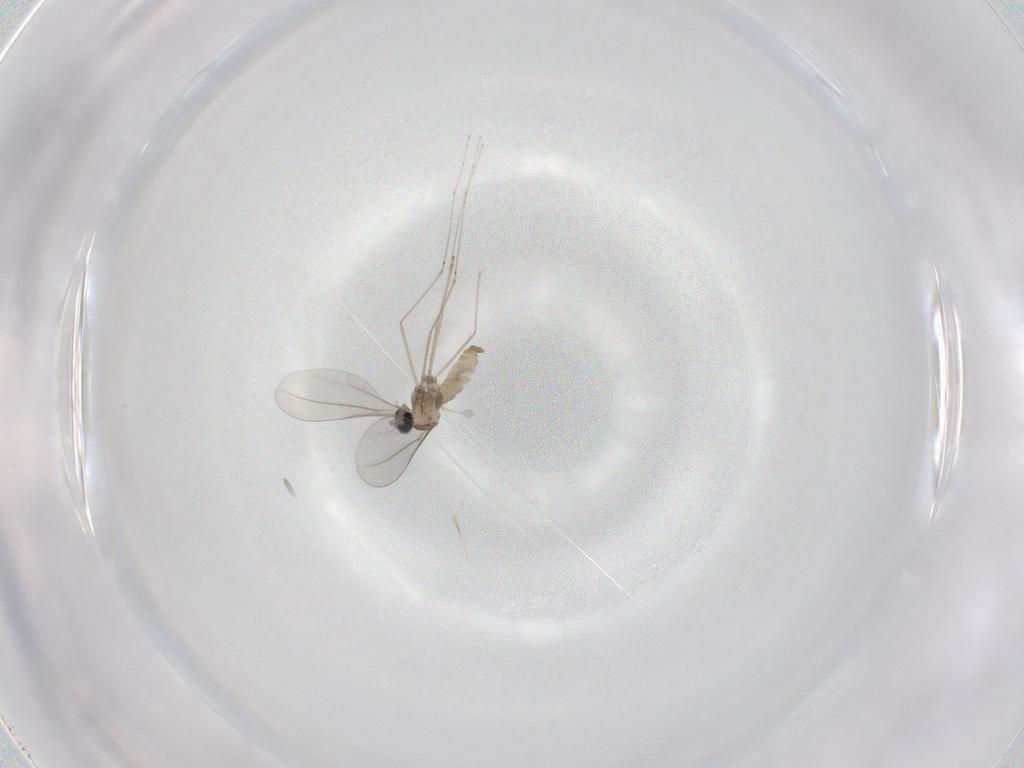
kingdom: Animalia
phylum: Arthropoda
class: Insecta
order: Diptera
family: Cecidomyiidae
